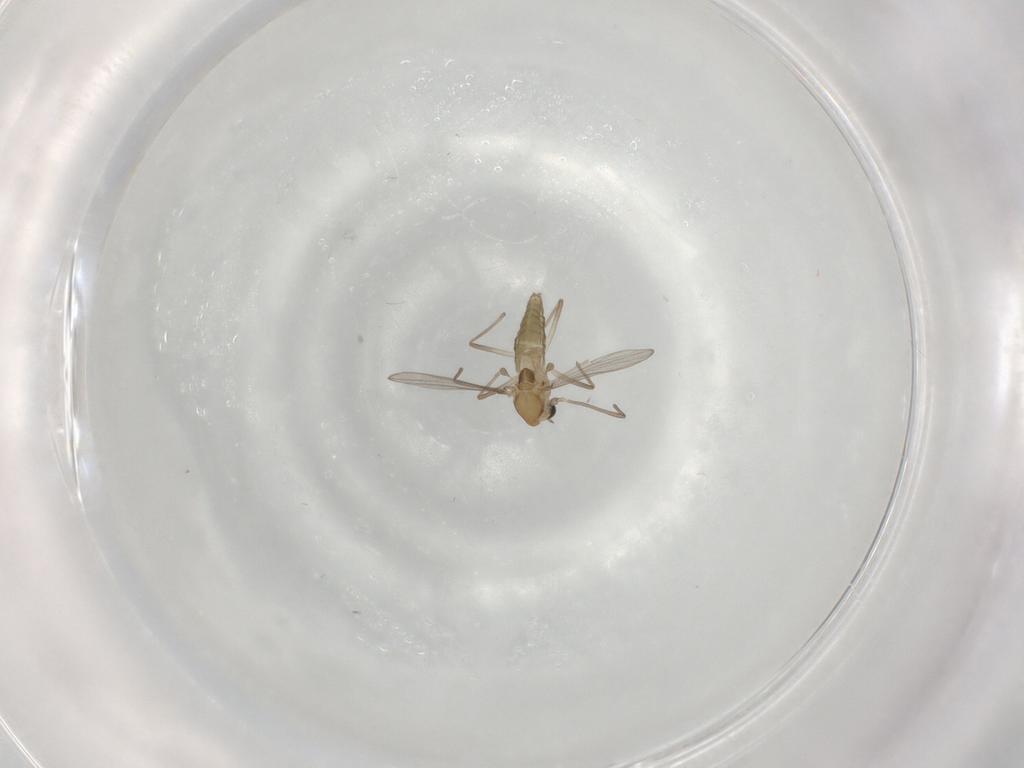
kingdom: Animalia
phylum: Arthropoda
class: Insecta
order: Diptera
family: Chironomidae
